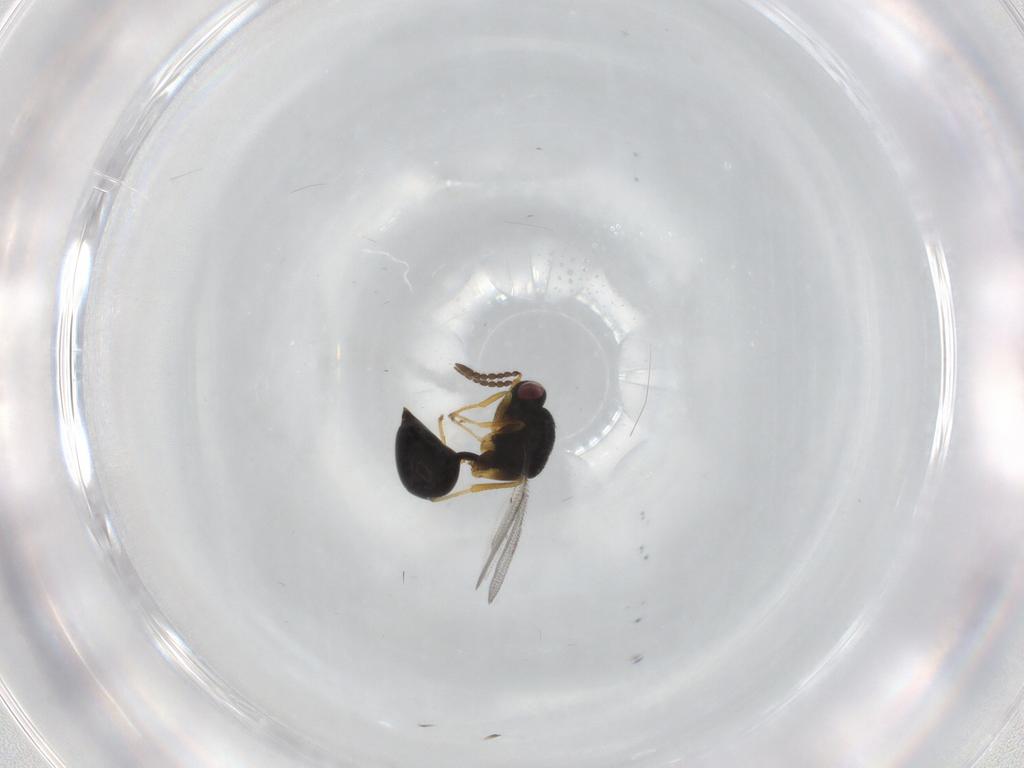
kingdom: Animalia
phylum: Arthropoda
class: Insecta
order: Hymenoptera
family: Eurytomidae
